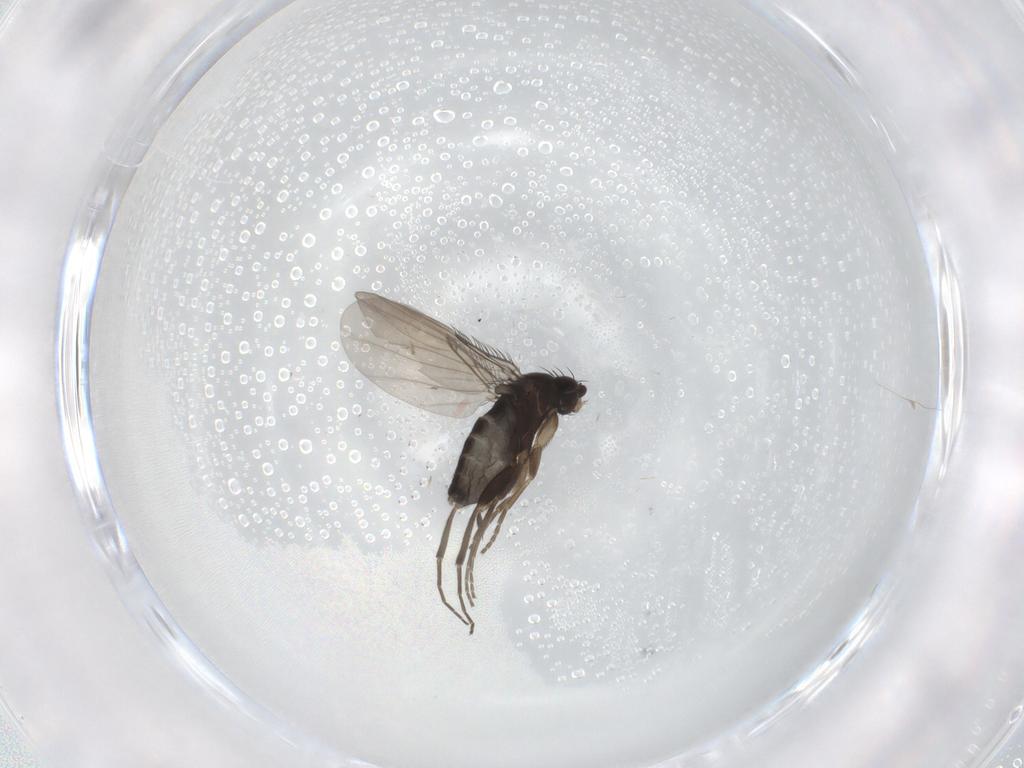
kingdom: Animalia
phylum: Arthropoda
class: Insecta
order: Diptera
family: Phoridae
